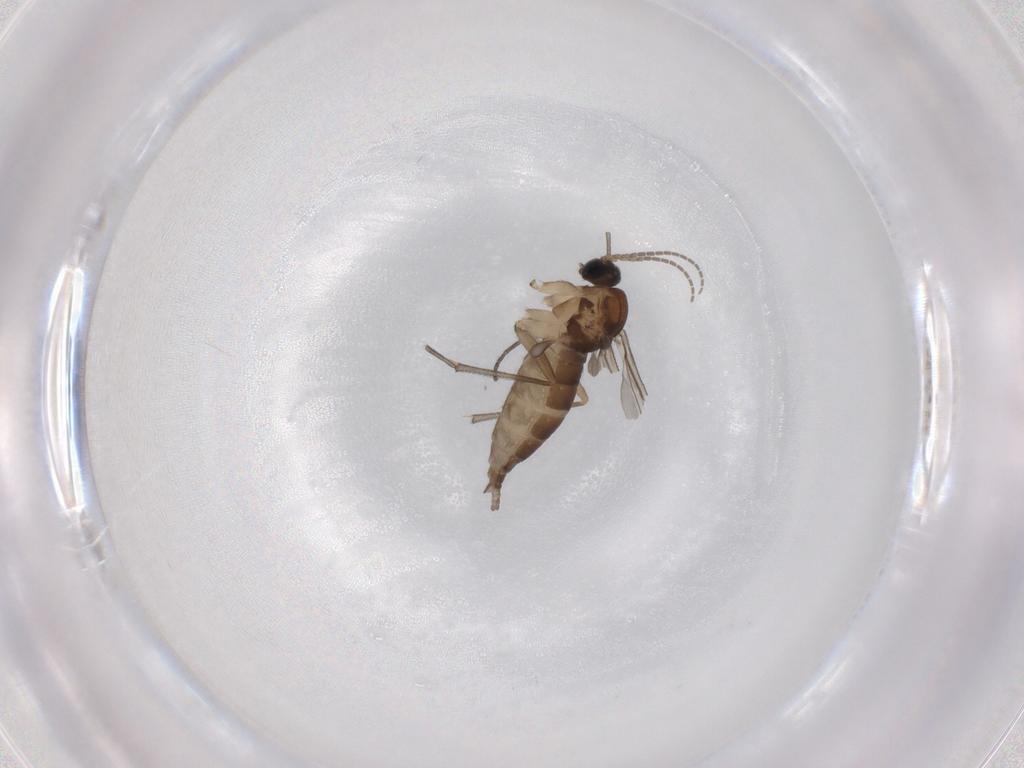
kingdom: Animalia
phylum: Arthropoda
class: Insecta
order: Diptera
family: Sciaridae
